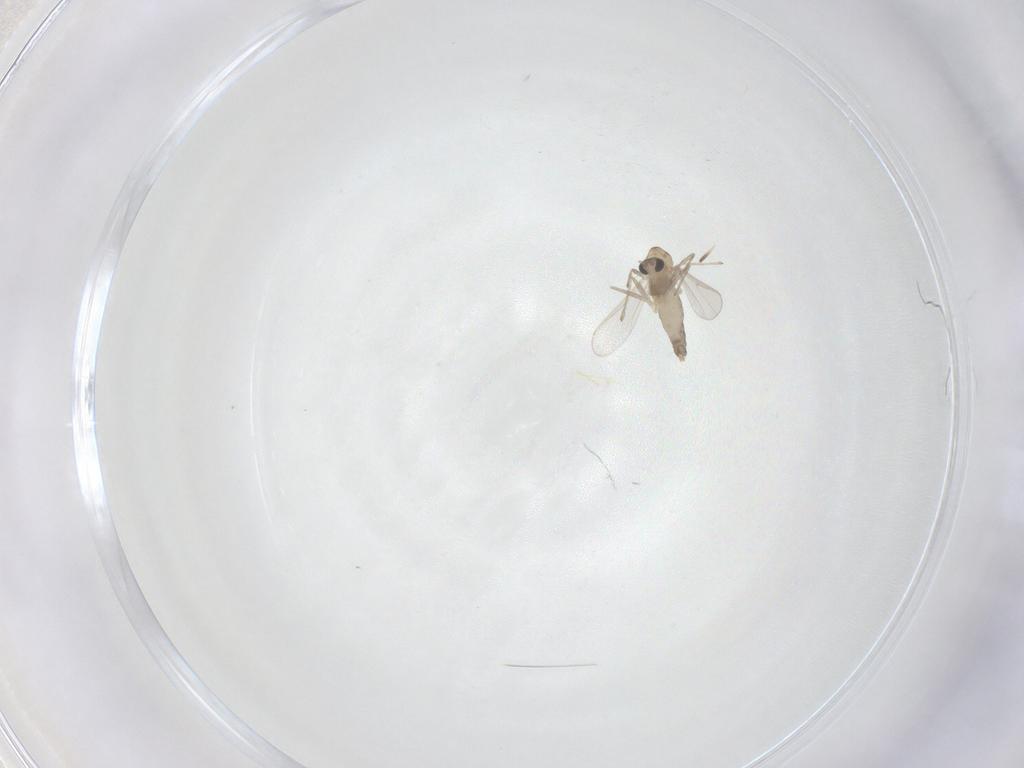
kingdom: Animalia
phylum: Arthropoda
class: Insecta
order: Diptera
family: Chironomidae
